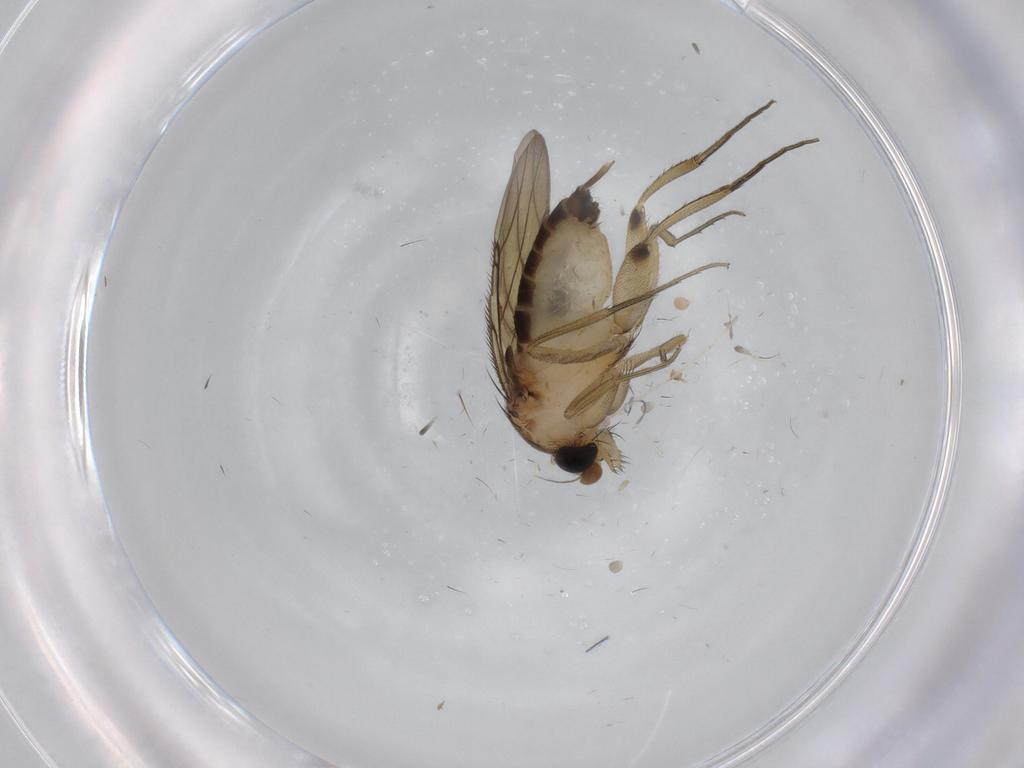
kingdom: Animalia
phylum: Arthropoda
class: Insecta
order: Diptera
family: Phoridae
